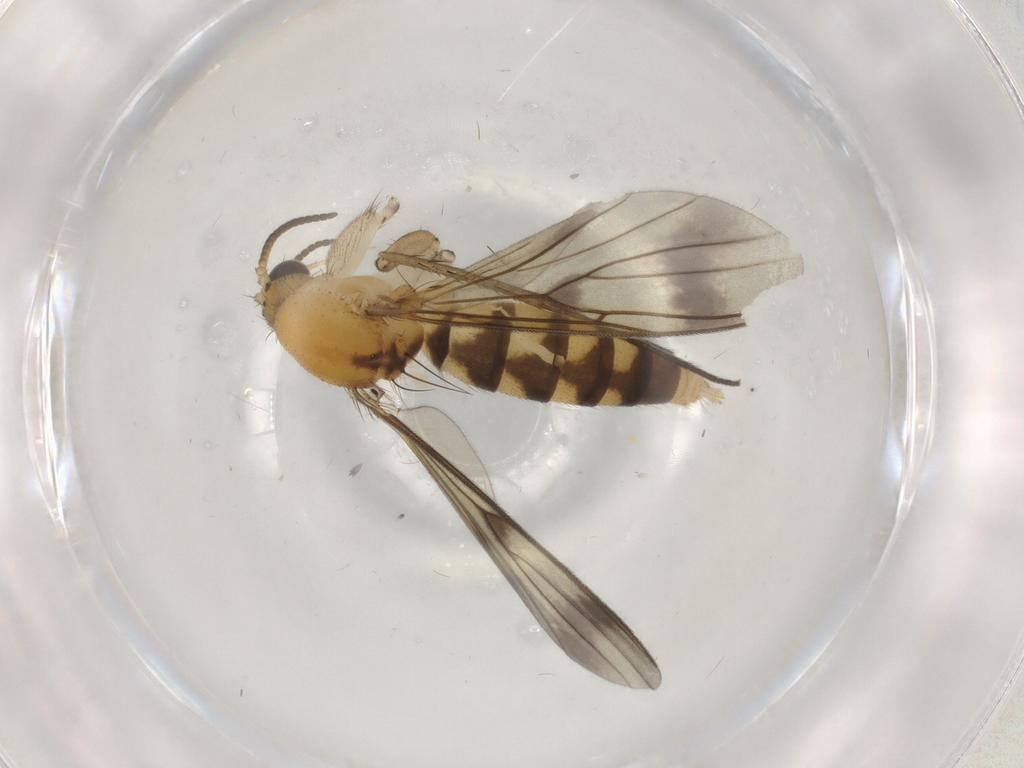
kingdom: Animalia
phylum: Arthropoda
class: Insecta
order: Diptera
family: Mycetophilidae
